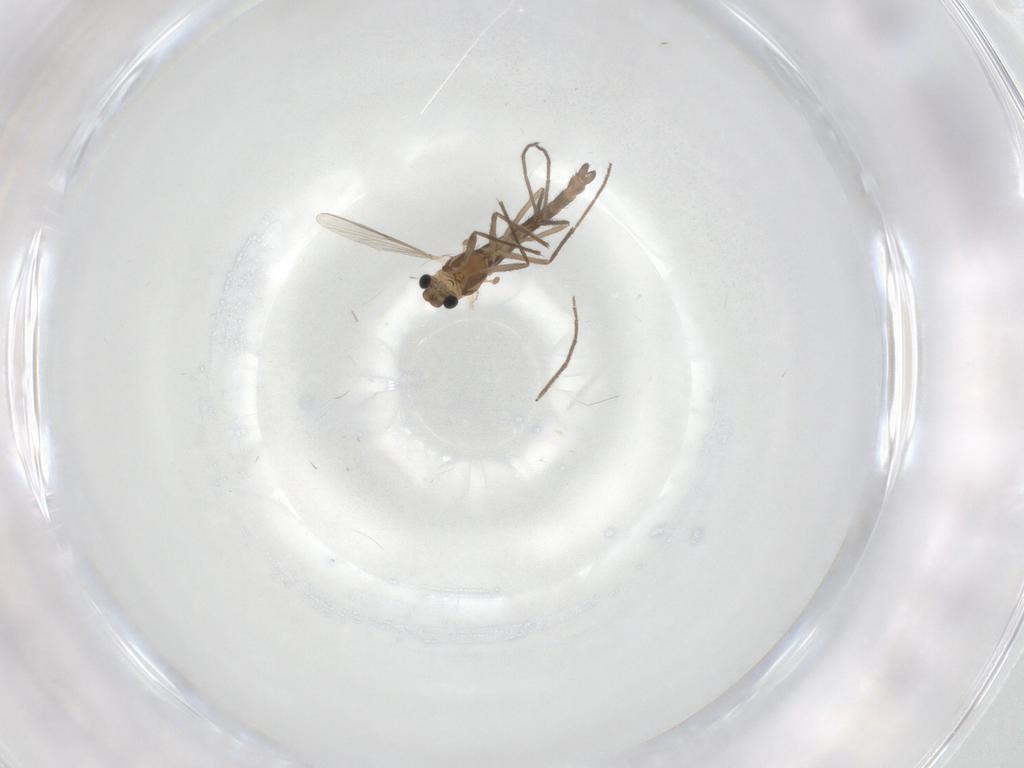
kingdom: Animalia
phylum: Arthropoda
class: Insecta
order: Diptera
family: Chironomidae
